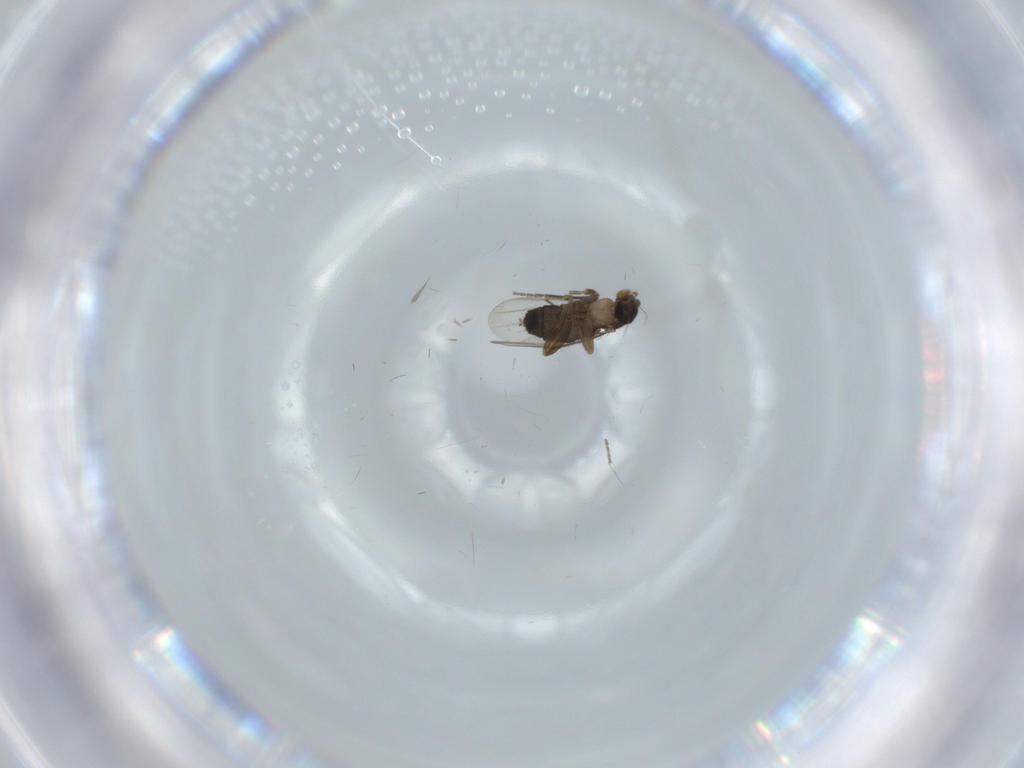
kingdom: Animalia
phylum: Arthropoda
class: Insecta
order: Diptera
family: Phoridae
